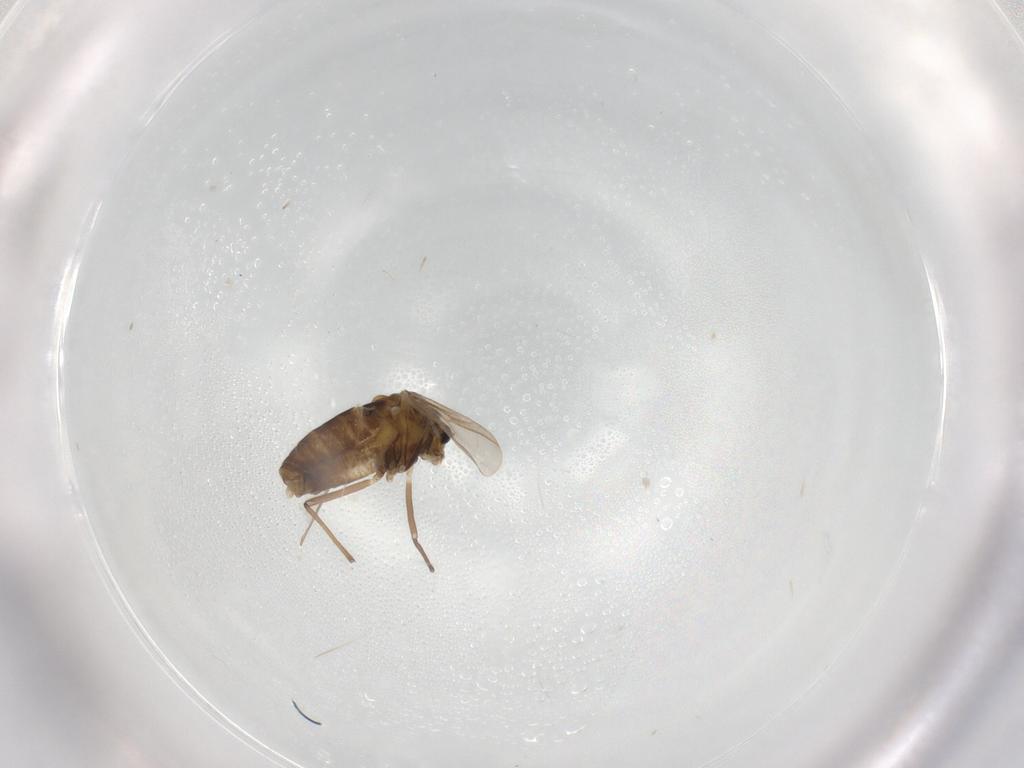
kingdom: Animalia
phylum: Arthropoda
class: Insecta
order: Diptera
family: Chironomidae
